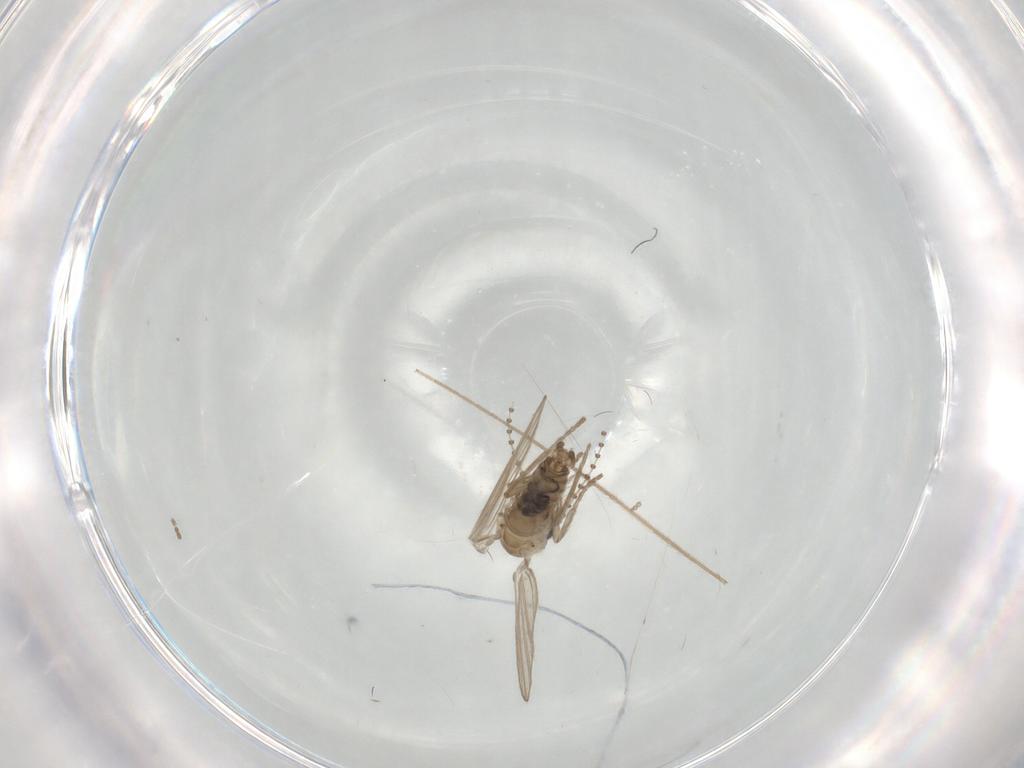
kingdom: Animalia
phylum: Arthropoda
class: Insecta
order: Diptera
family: Psychodidae
